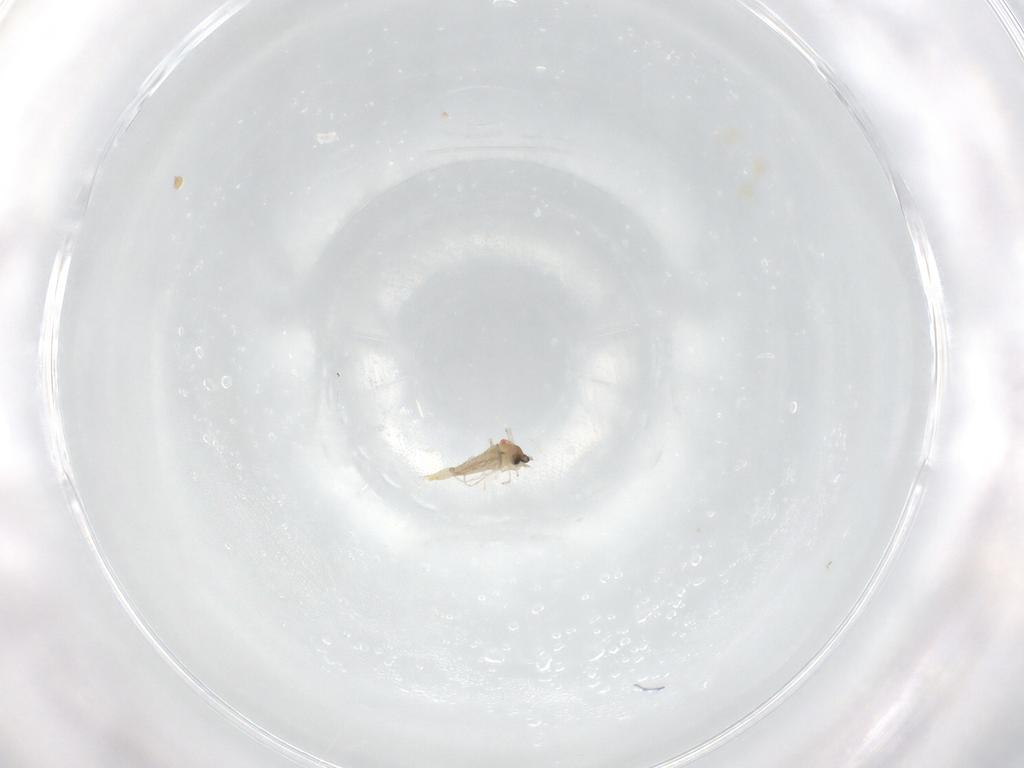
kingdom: Animalia
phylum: Arthropoda
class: Insecta
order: Diptera
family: Cecidomyiidae
